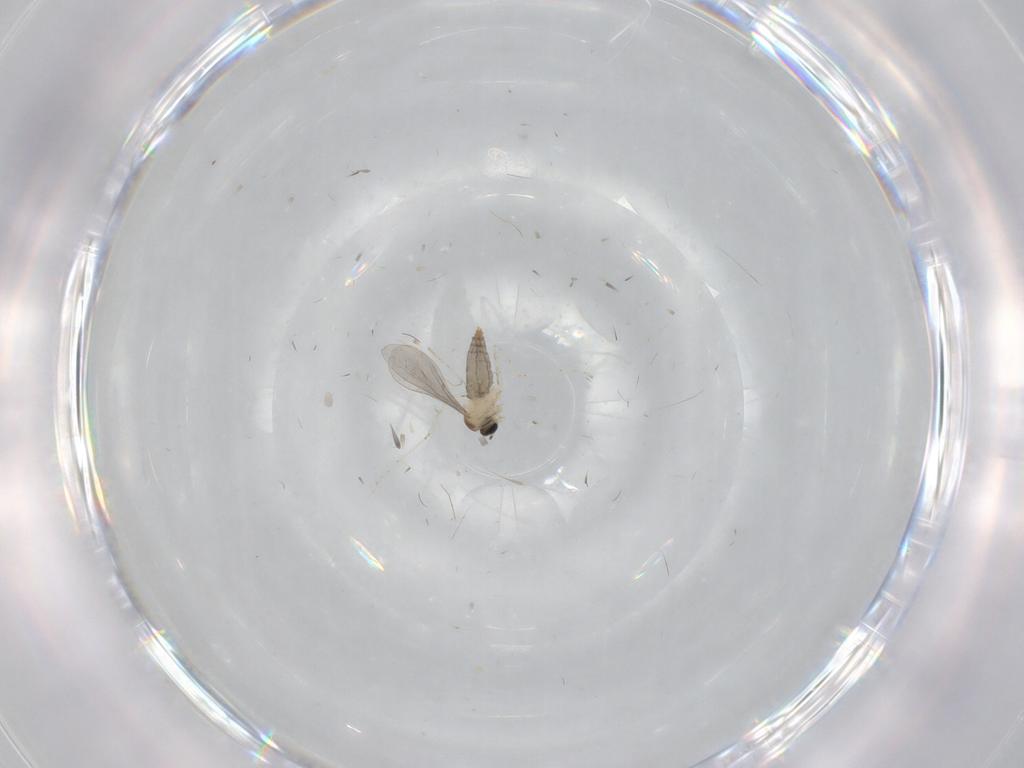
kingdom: Animalia
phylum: Arthropoda
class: Insecta
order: Diptera
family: Cecidomyiidae
